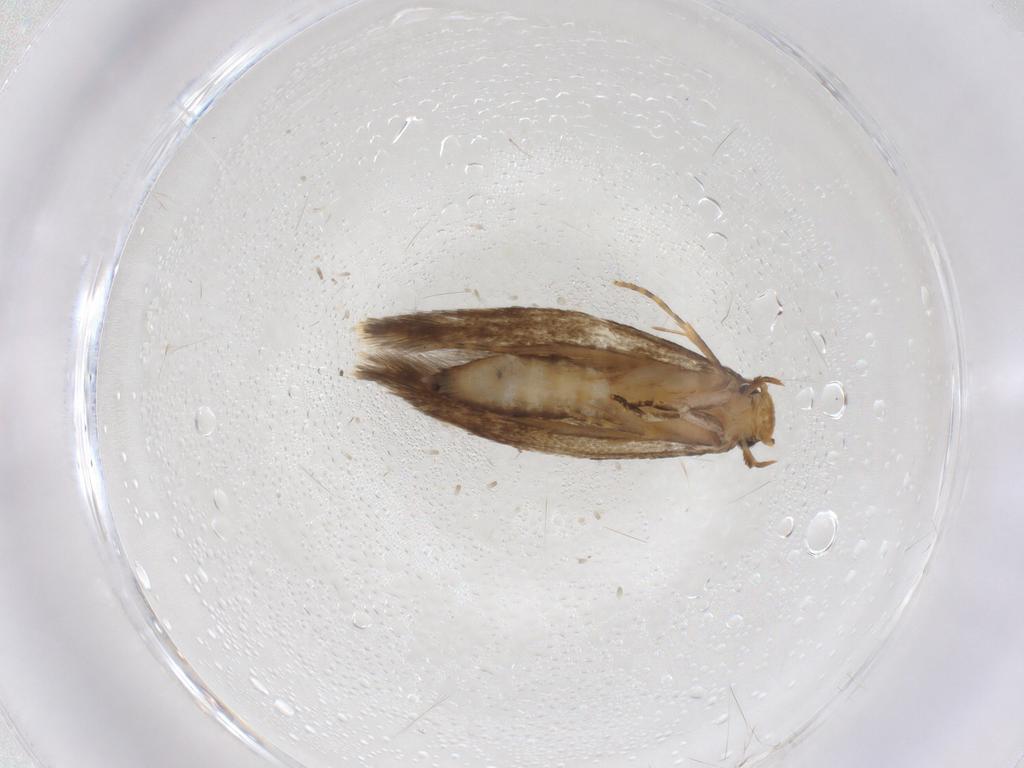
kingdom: Animalia
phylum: Arthropoda
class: Insecta
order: Lepidoptera
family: Tineidae
